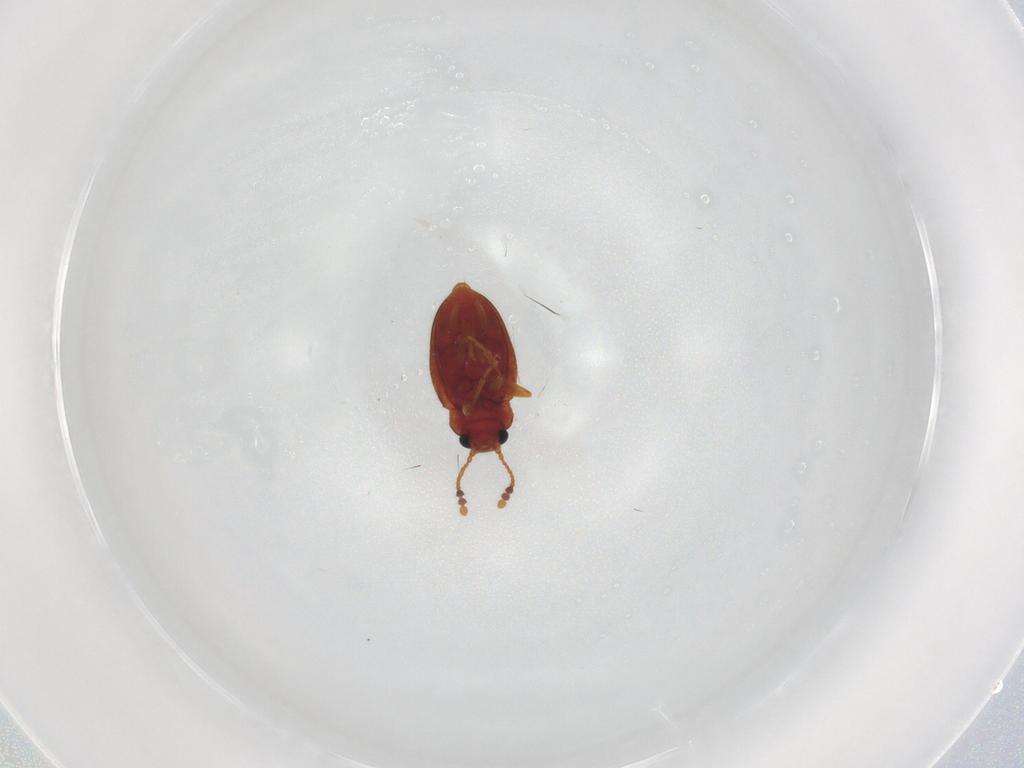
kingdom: Animalia
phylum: Arthropoda
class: Insecta
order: Coleoptera
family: Erotylidae
